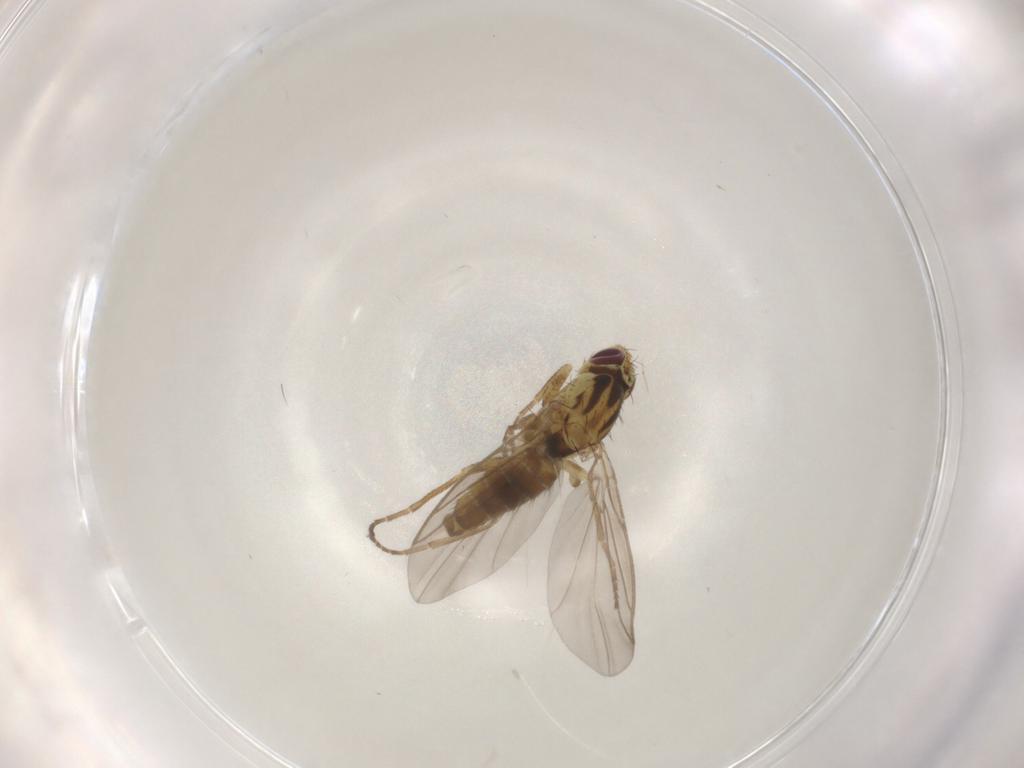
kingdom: Animalia
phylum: Arthropoda
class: Insecta
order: Diptera
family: Agromyzidae
